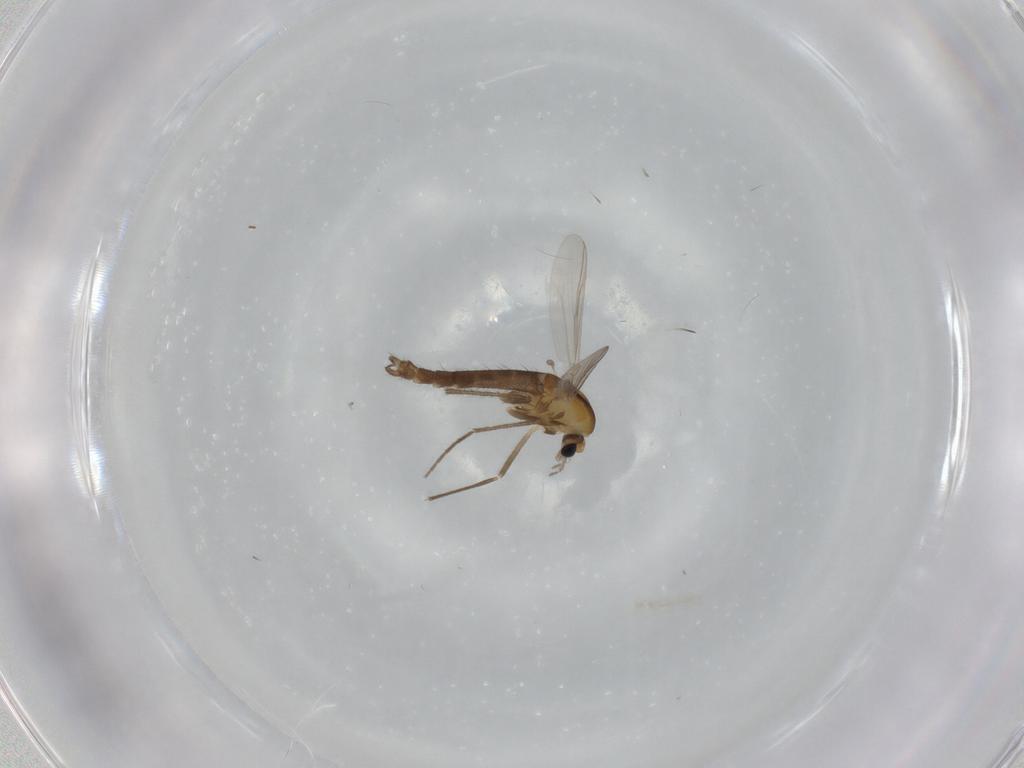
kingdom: Animalia
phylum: Arthropoda
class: Insecta
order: Diptera
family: Chironomidae
